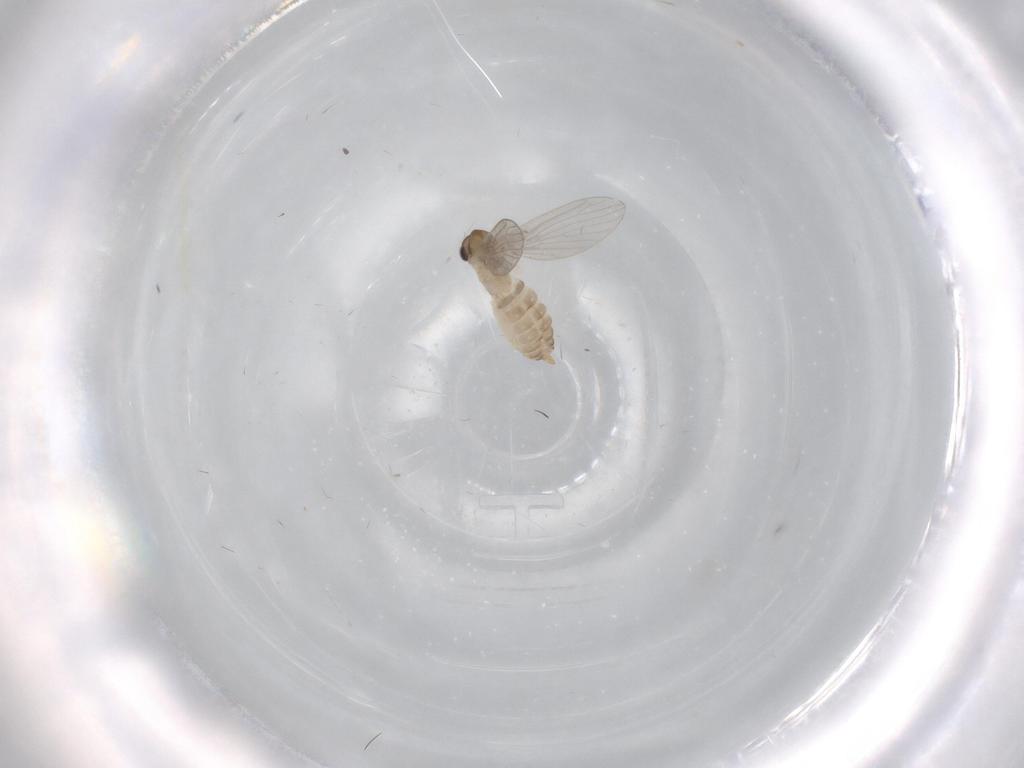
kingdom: Animalia
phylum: Arthropoda
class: Insecta
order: Diptera
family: Psychodidae
